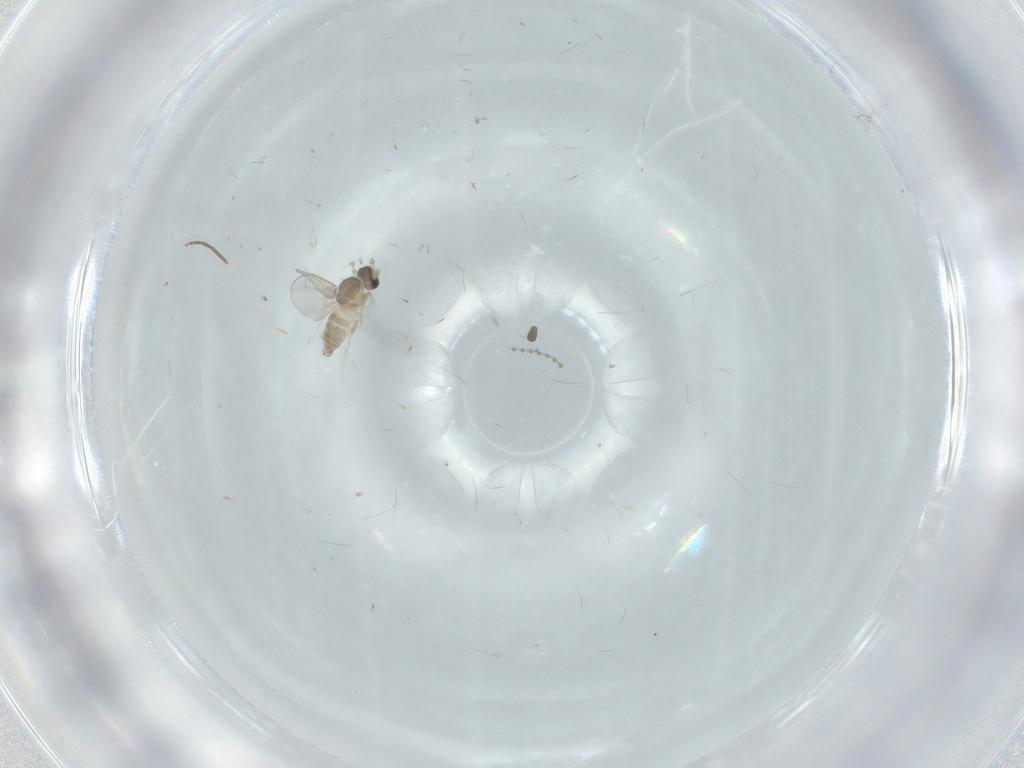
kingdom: Animalia
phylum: Arthropoda
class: Insecta
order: Diptera
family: Cecidomyiidae
